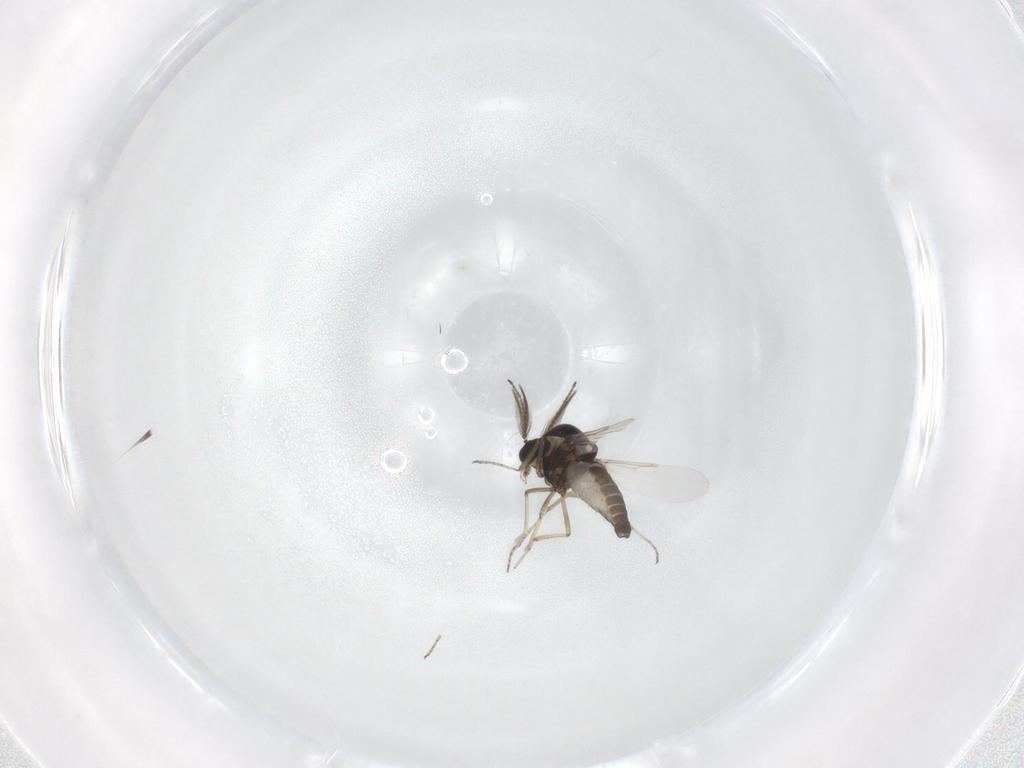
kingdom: Animalia
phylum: Arthropoda
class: Insecta
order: Diptera
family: Ceratopogonidae
